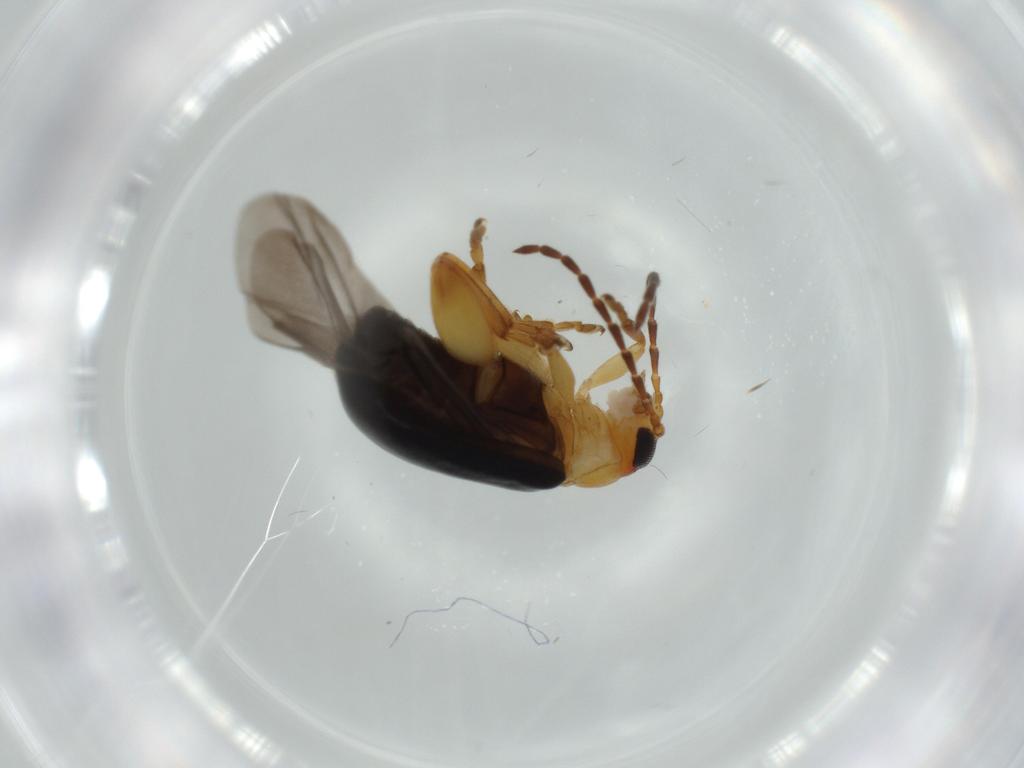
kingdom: Animalia
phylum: Arthropoda
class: Insecta
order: Coleoptera
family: Chrysomelidae
